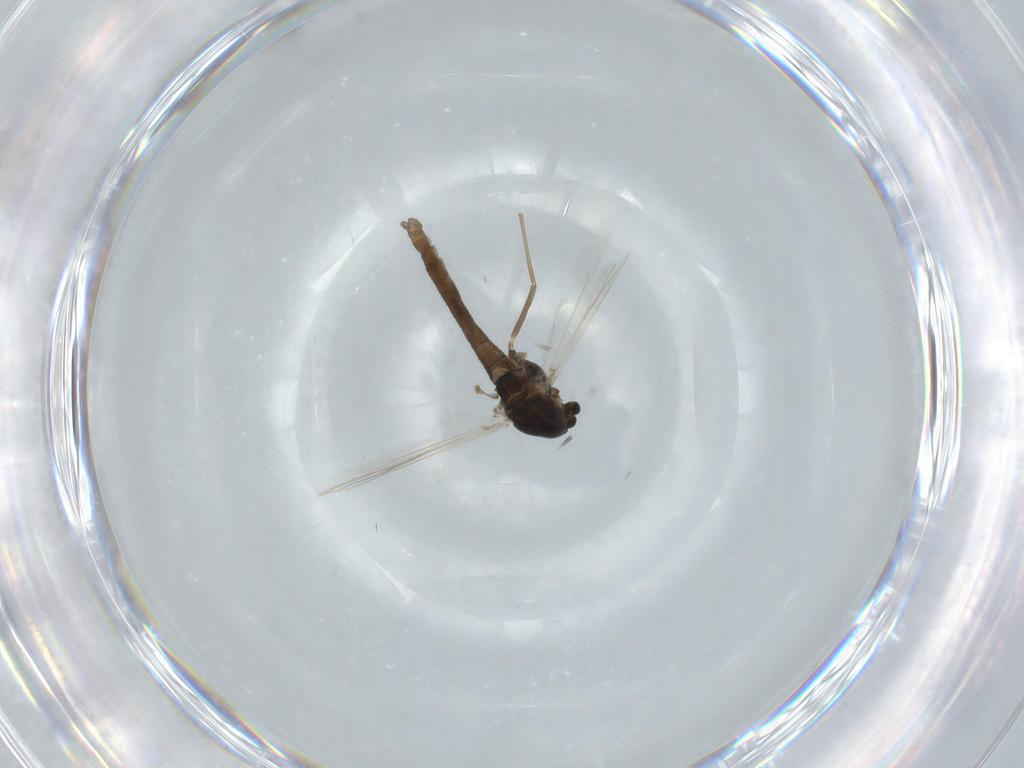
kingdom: Animalia
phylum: Arthropoda
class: Insecta
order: Diptera
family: Chironomidae
